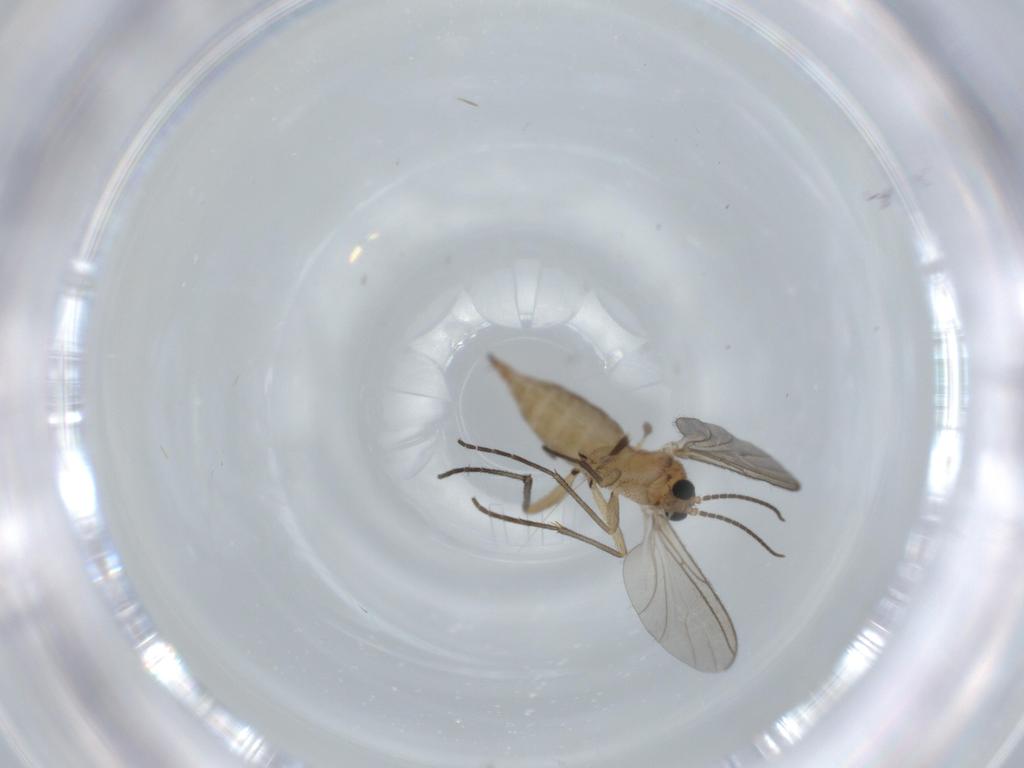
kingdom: Animalia
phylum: Arthropoda
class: Insecta
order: Diptera
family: Sciaridae
